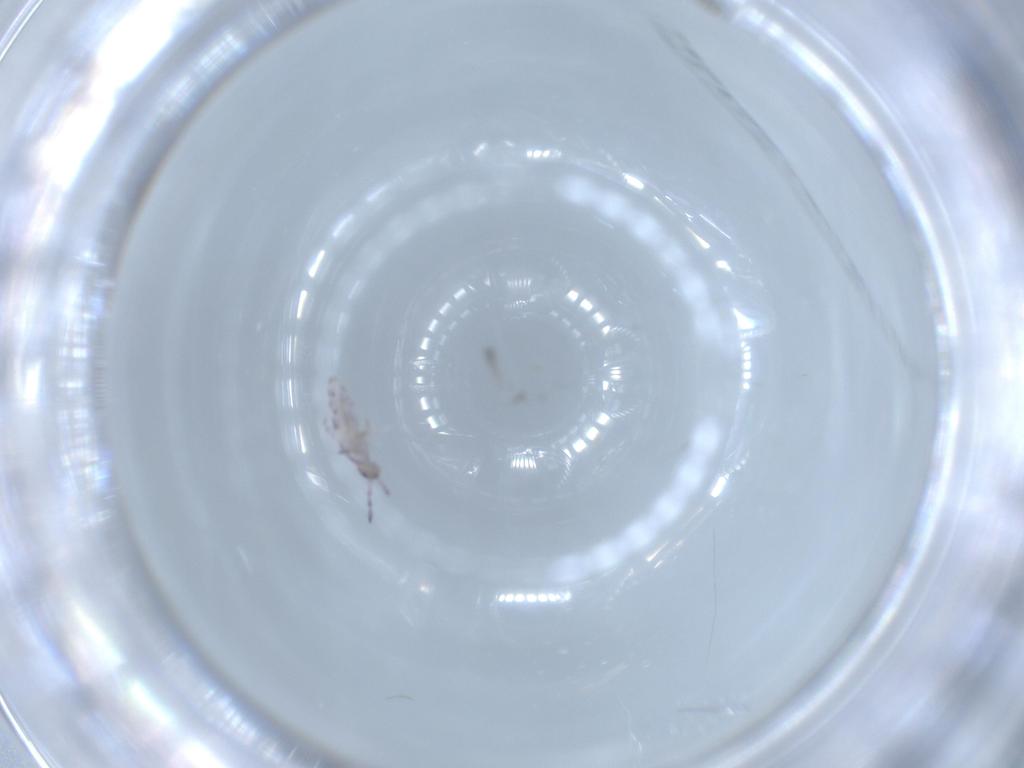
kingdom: Animalia
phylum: Arthropoda
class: Collembola
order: Entomobryomorpha
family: Entomobryidae
